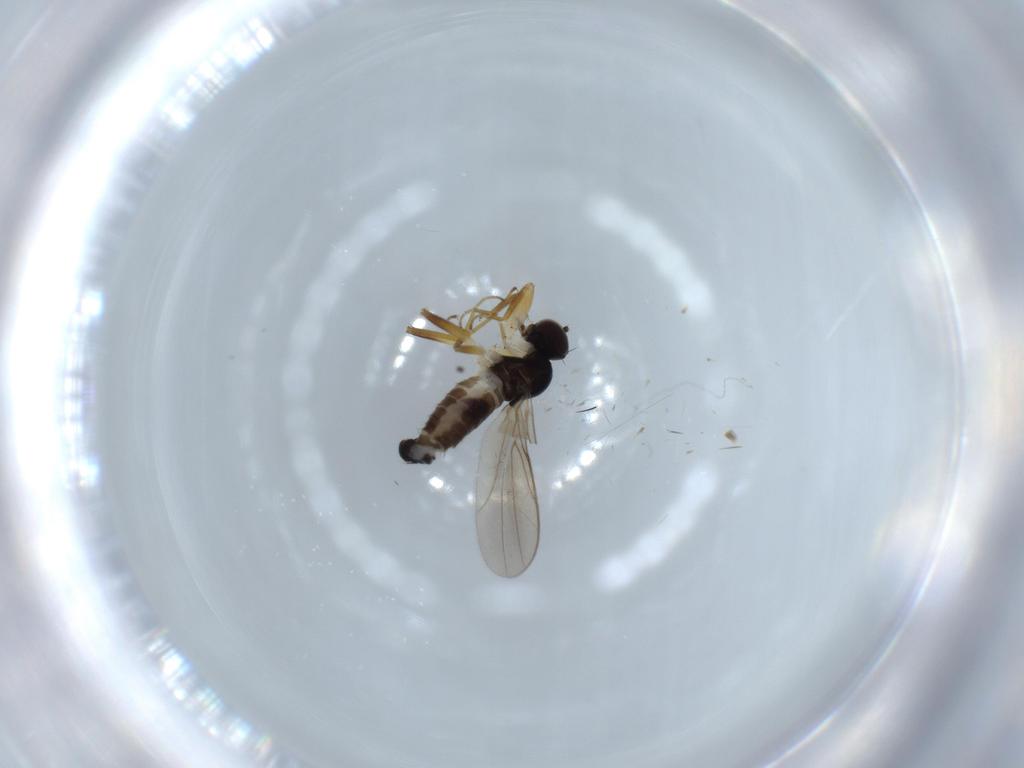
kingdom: Animalia
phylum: Arthropoda
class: Insecta
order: Diptera
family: Hybotidae
